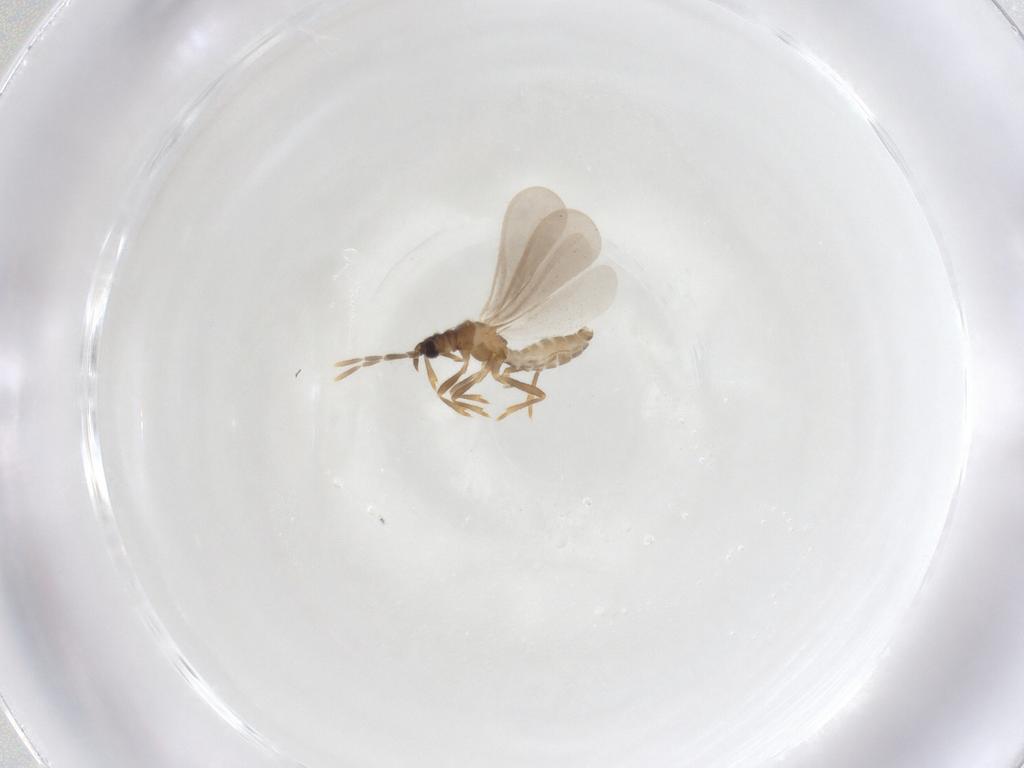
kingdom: Animalia
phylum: Arthropoda
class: Insecta
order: Hemiptera
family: Enicocephalidae
